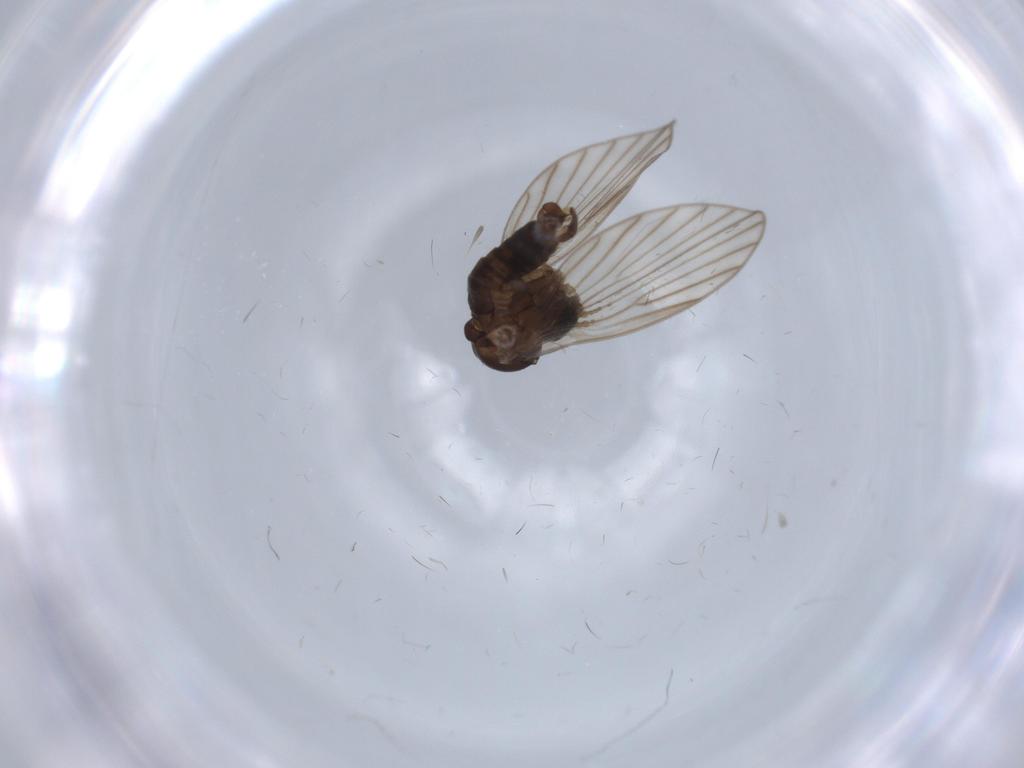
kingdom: Animalia
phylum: Arthropoda
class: Insecta
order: Diptera
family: Psychodidae
